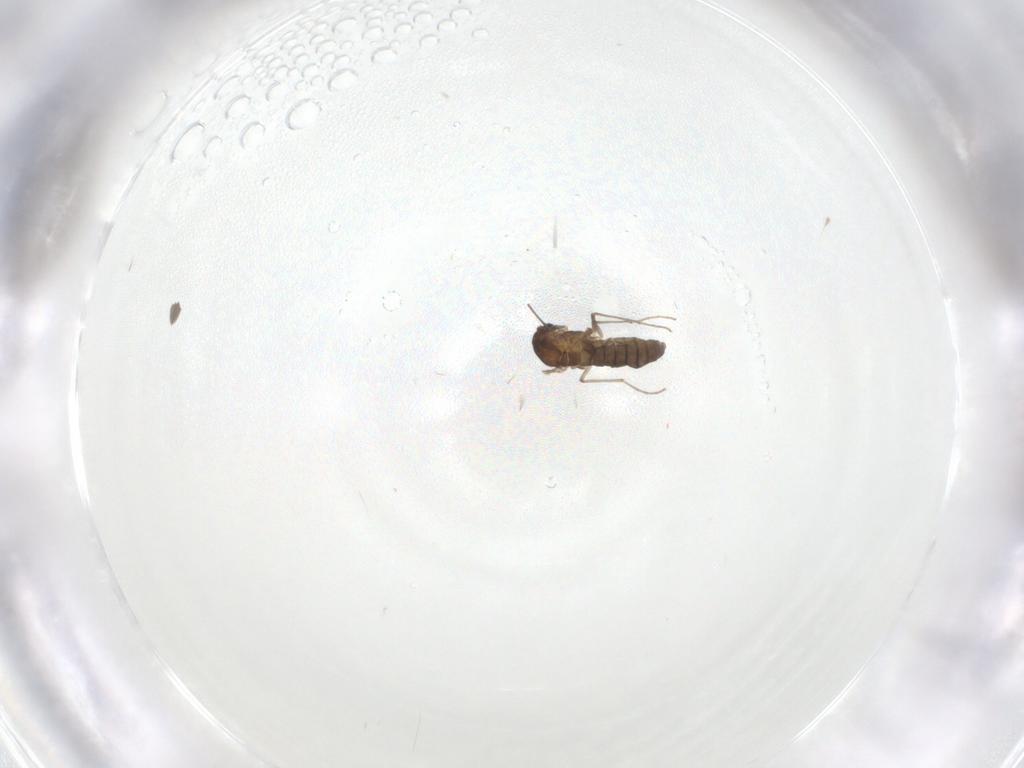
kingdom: Animalia
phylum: Arthropoda
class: Insecta
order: Diptera
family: Chironomidae
